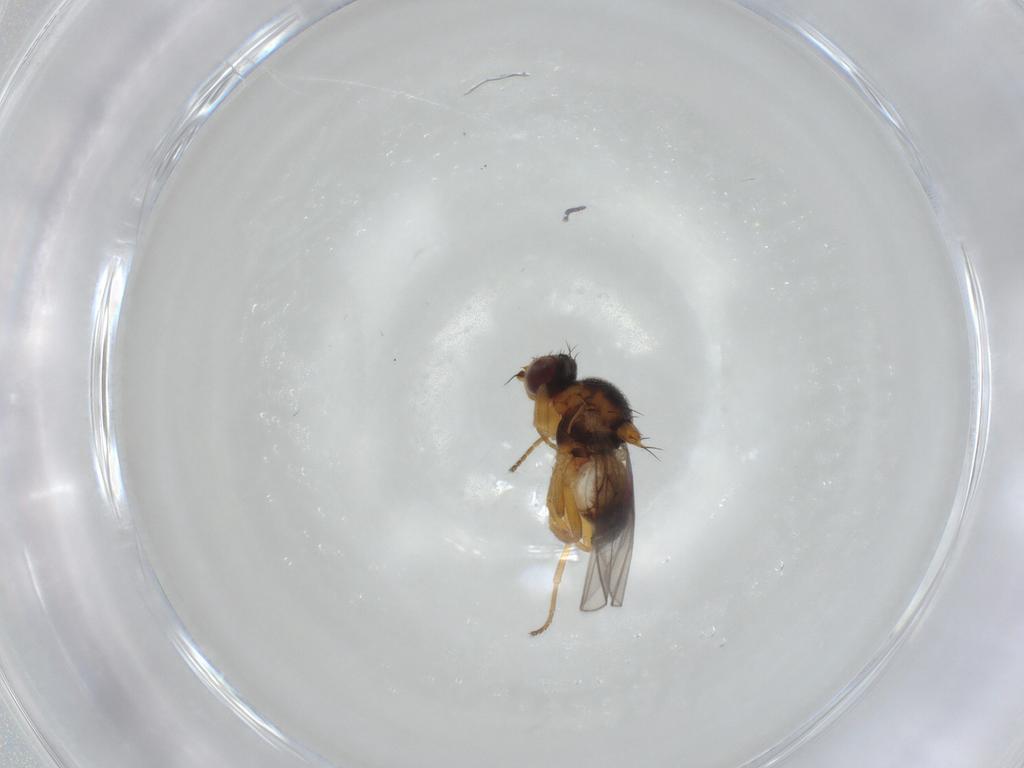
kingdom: Animalia
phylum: Arthropoda
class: Insecta
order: Diptera
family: Chloropidae
